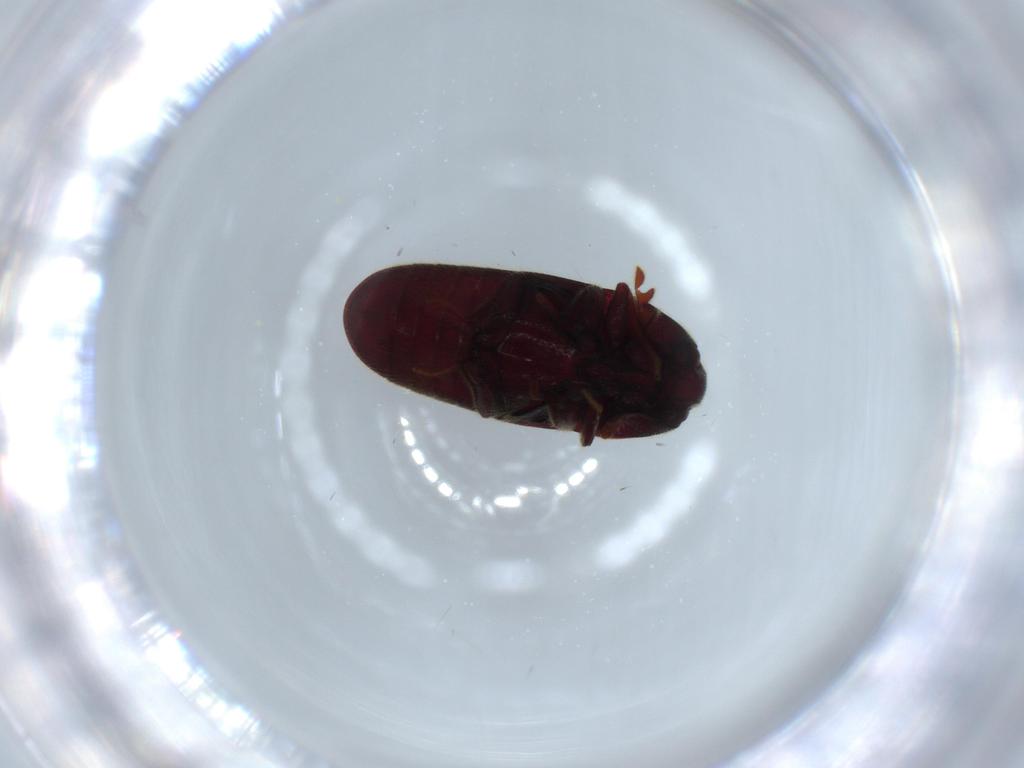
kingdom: Animalia
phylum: Arthropoda
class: Insecta
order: Coleoptera
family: Throscidae
